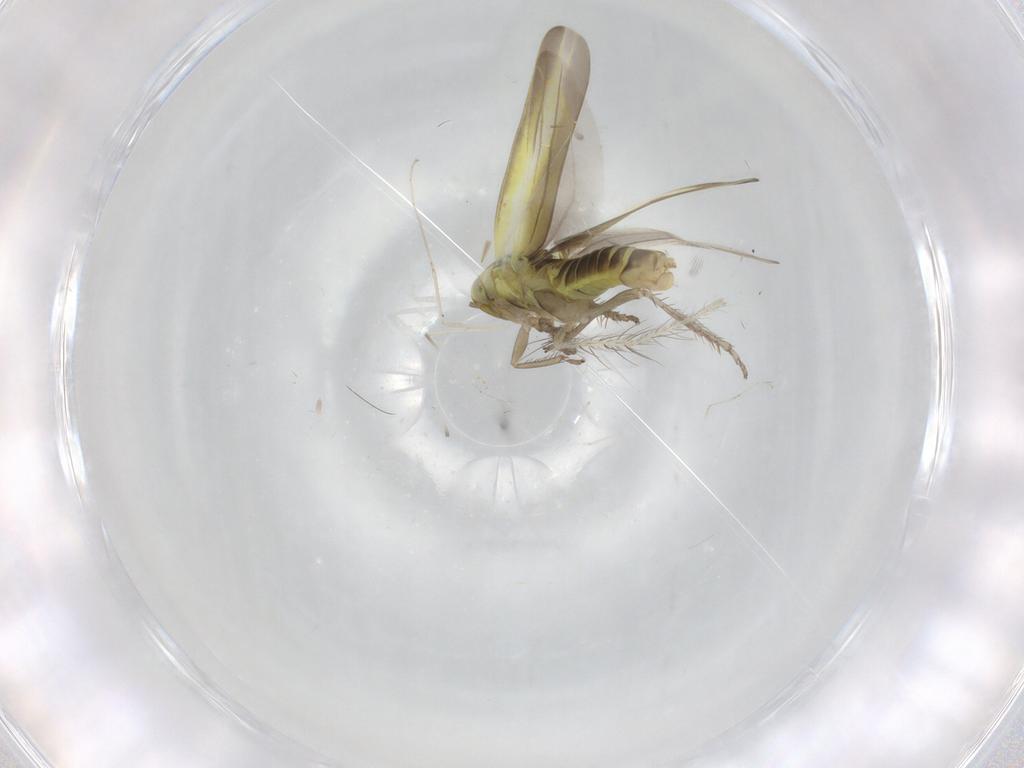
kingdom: Animalia
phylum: Arthropoda
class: Insecta
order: Hemiptera
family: Cicadellidae
